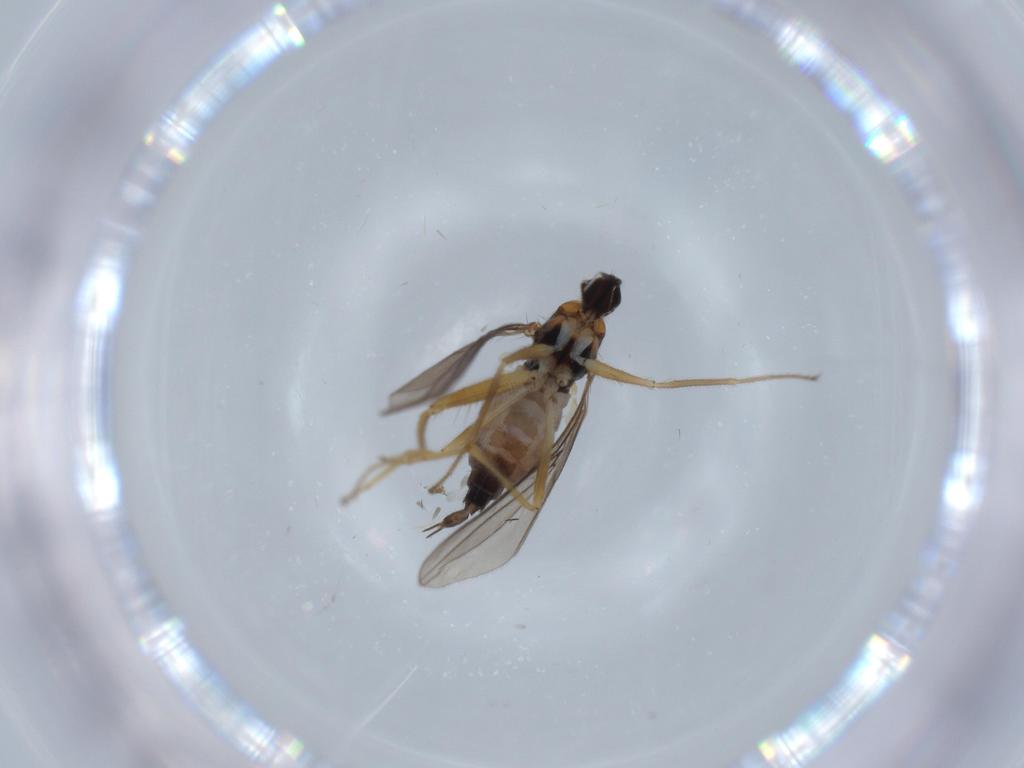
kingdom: Animalia
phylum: Arthropoda
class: Insecta
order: Diptera
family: Hybotidae
